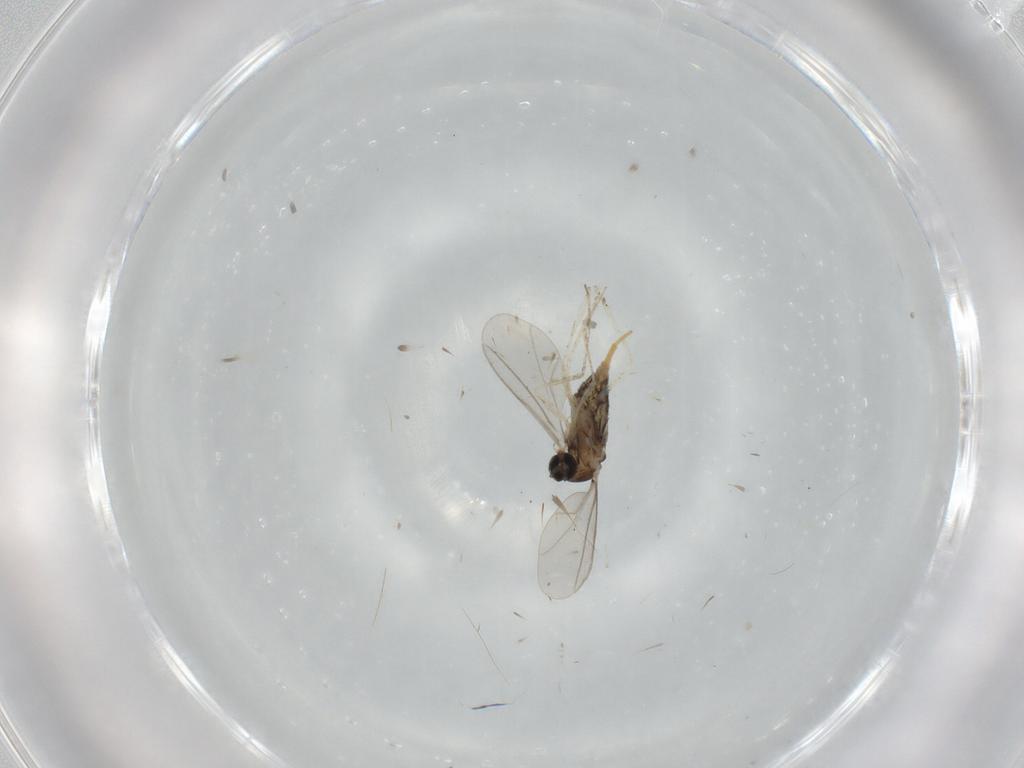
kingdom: Animalia
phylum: Arthropoda
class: Insecta
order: Diptera
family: Cecidomyiidae
